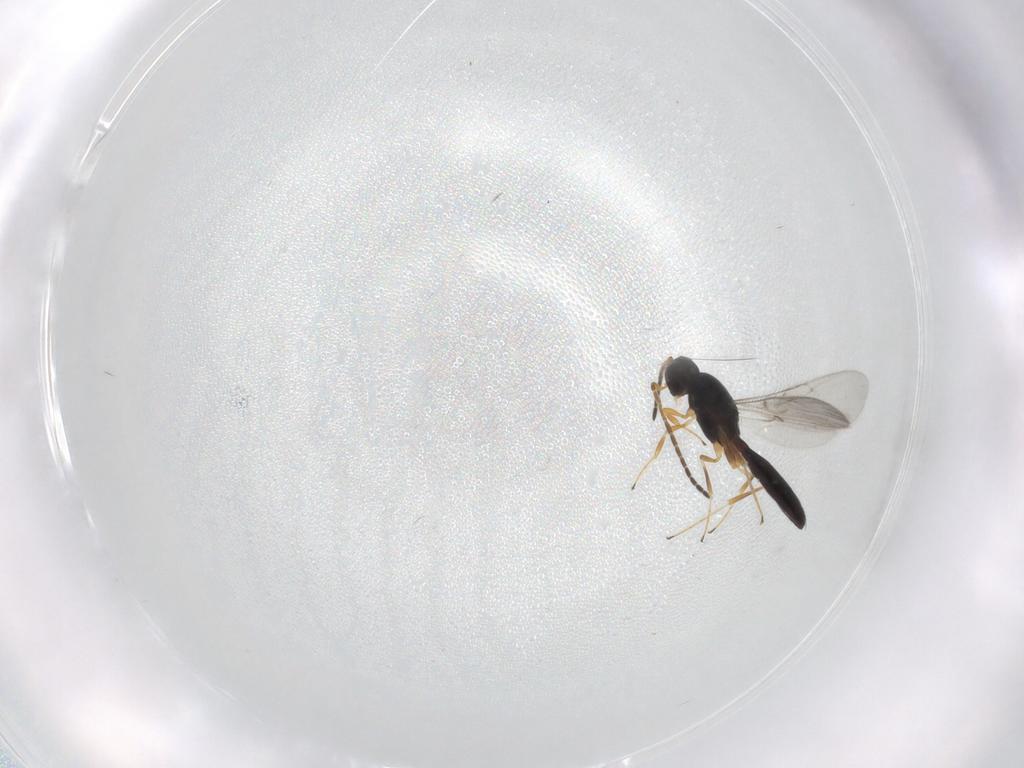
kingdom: Animalia
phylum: Arthropoda
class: Insecta
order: Hymenoptera
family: Scelionidae
